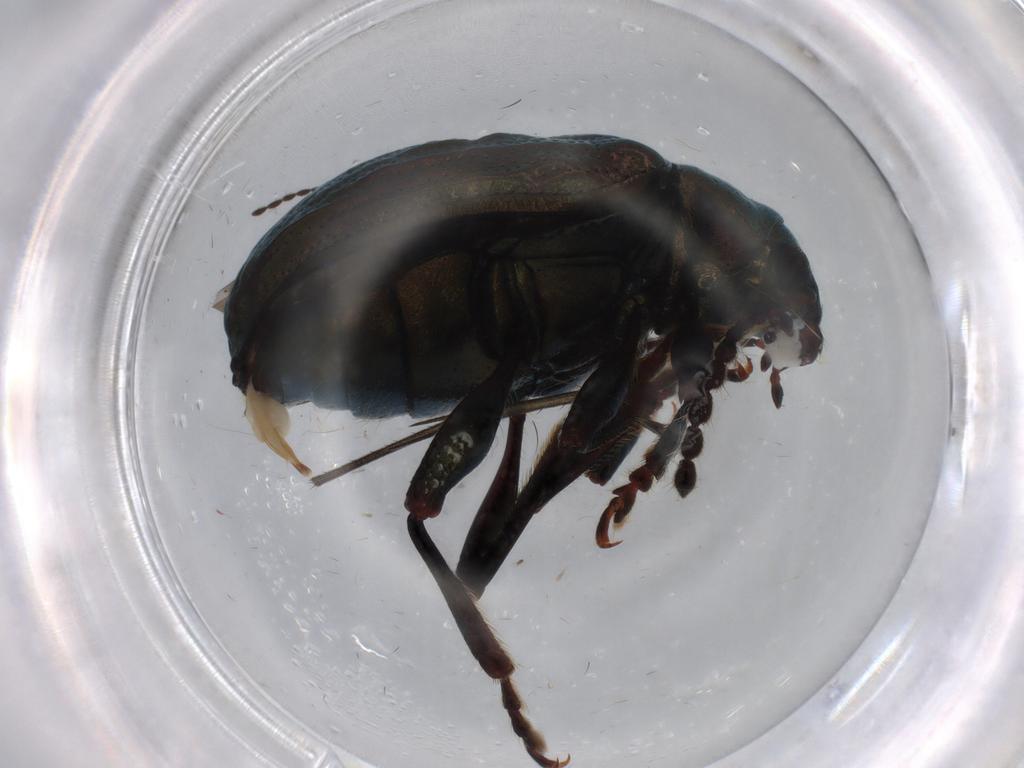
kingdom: Animalia
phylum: Arthropoda
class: Insecta
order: Coleoptera
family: Chrysomelidae
